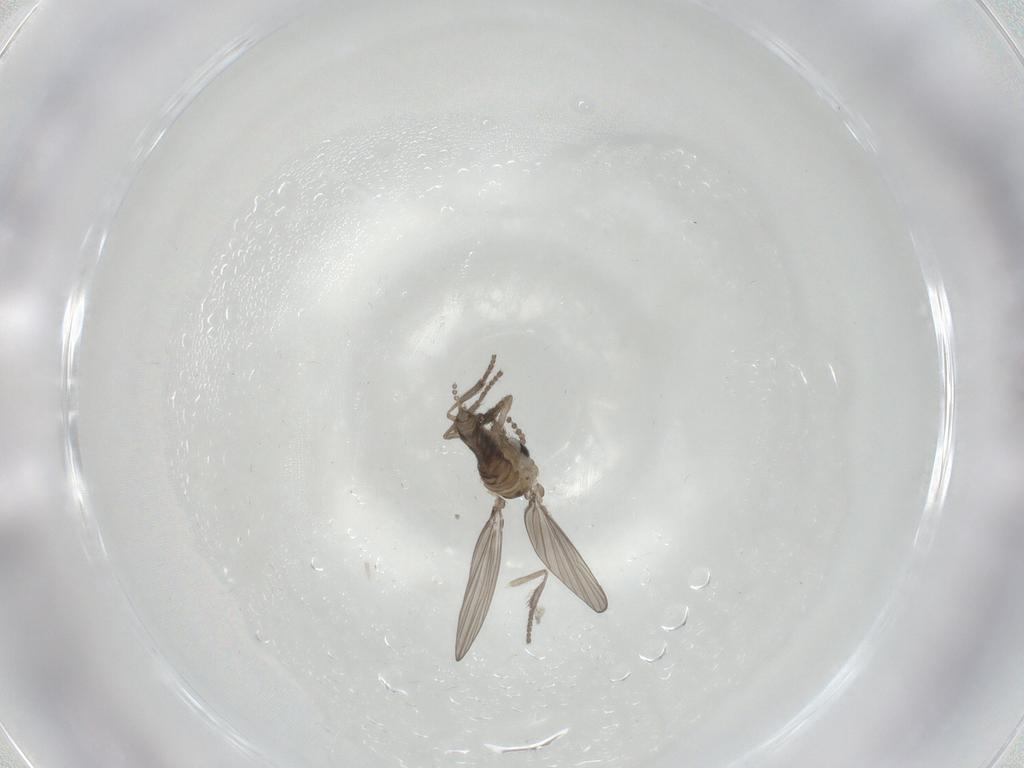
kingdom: Animalia
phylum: Arthropoda
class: Insecta
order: Diptera
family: Psychodidae
